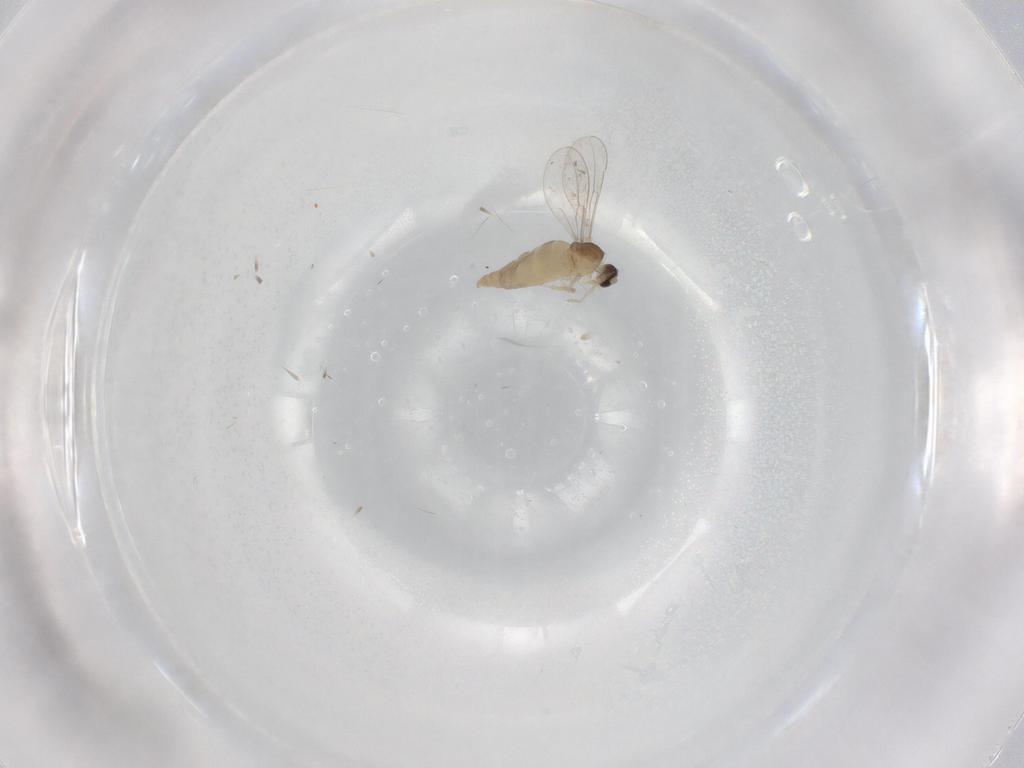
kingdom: Animalia
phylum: Arthropoda
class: Insecta
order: Diptera
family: Cecidomyiidae
